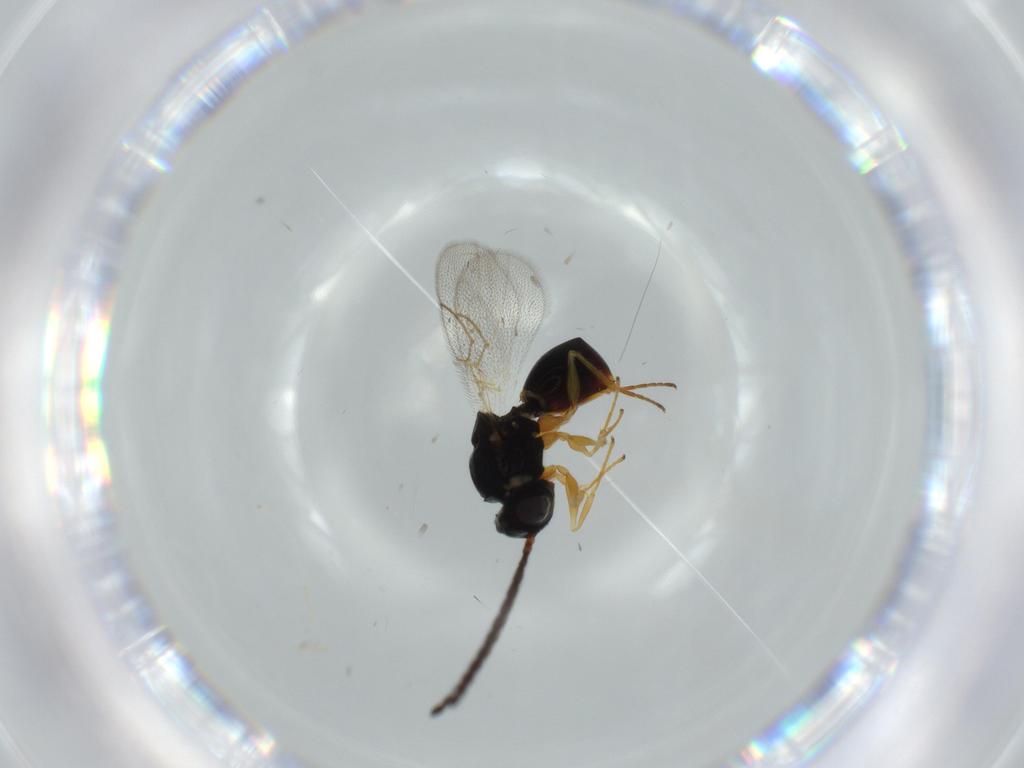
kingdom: Animalia
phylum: Arthropoda
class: Insecta
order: Hymenoptera
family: Figitidae
